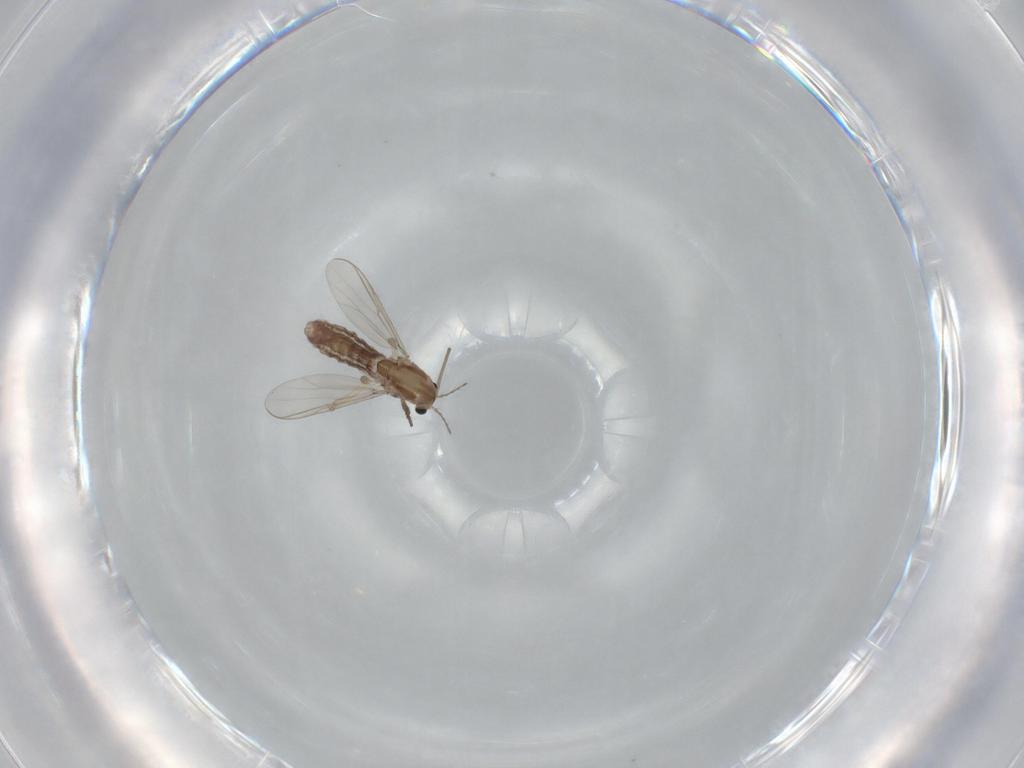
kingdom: Animalia
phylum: Arthropoda
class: Insecta
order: Diptera
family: Chironomidae
